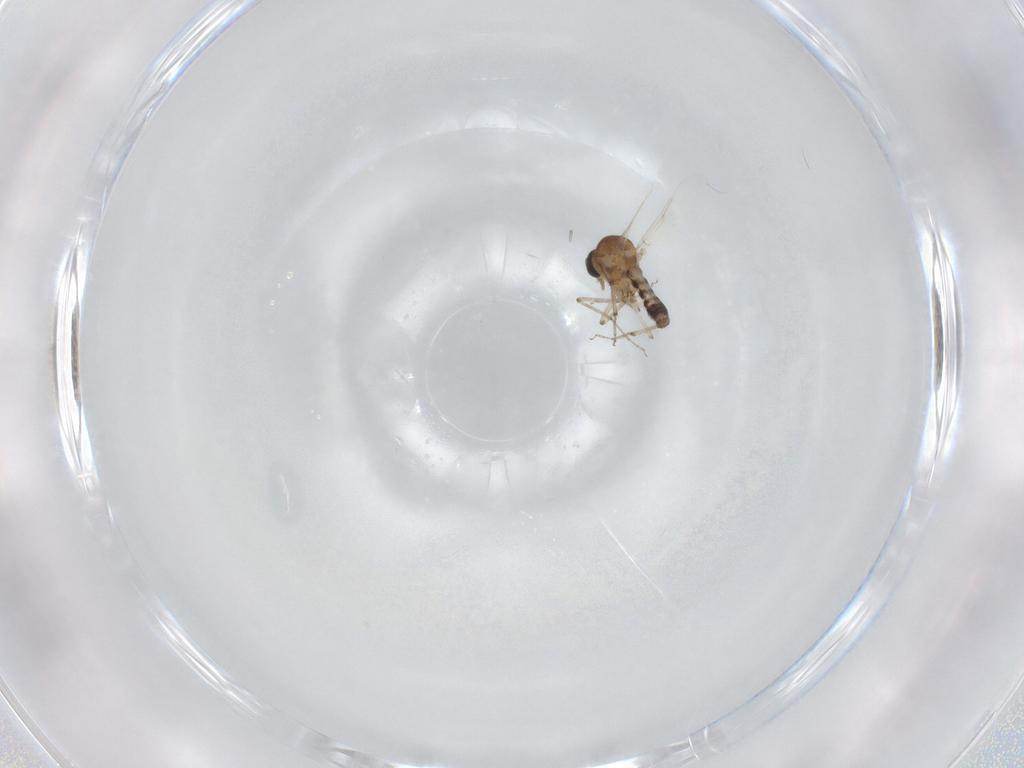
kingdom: Animalia
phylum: Arthropoda
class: Insecta
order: Diptera
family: Ceratopogonidae
